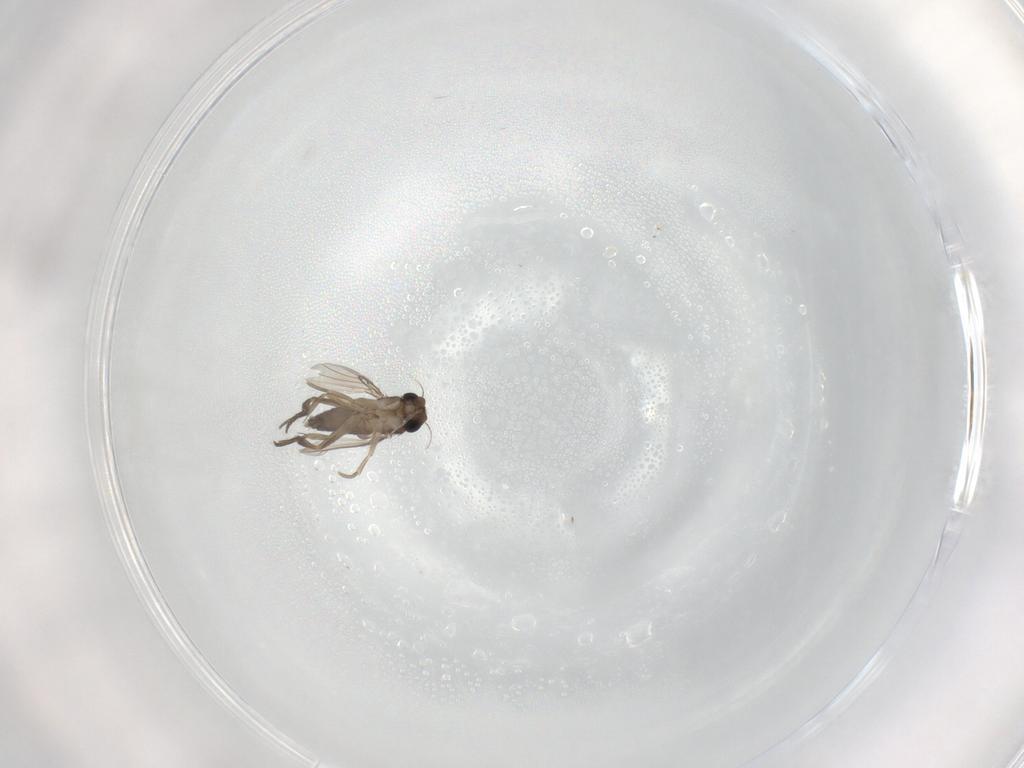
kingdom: Animalia
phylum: Arthropoda
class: Insecta
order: Diptera
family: Phoridae
